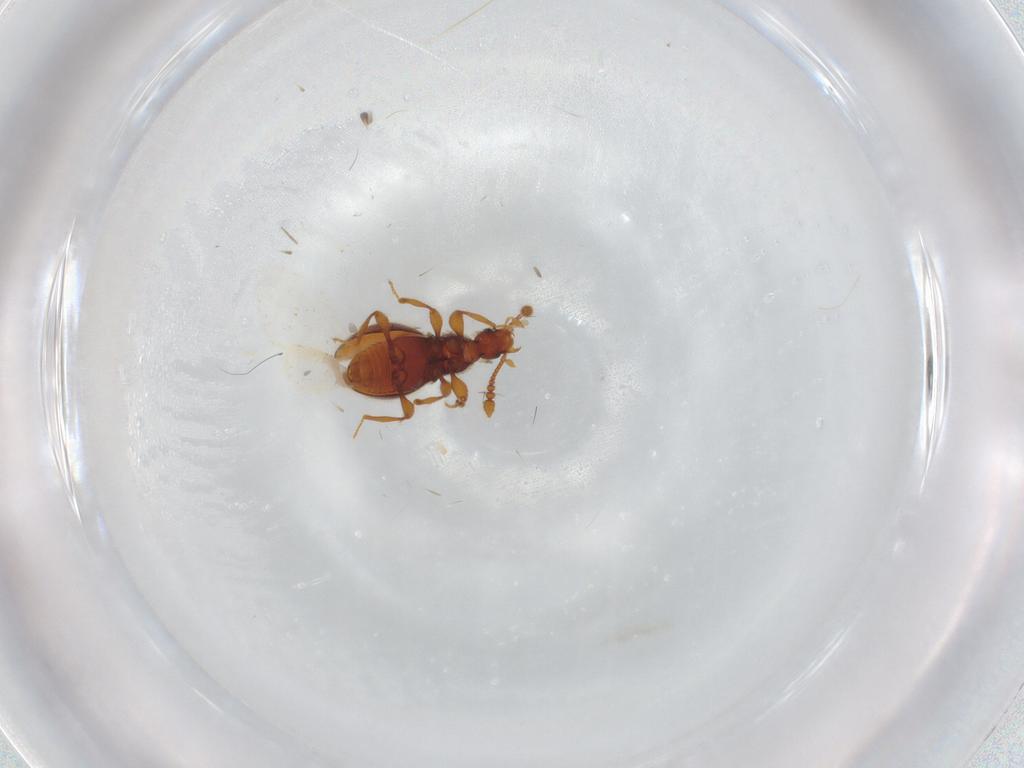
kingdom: Animalia
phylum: Arthropoda
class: Insecta
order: Coleoptera
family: Staphylinidae
